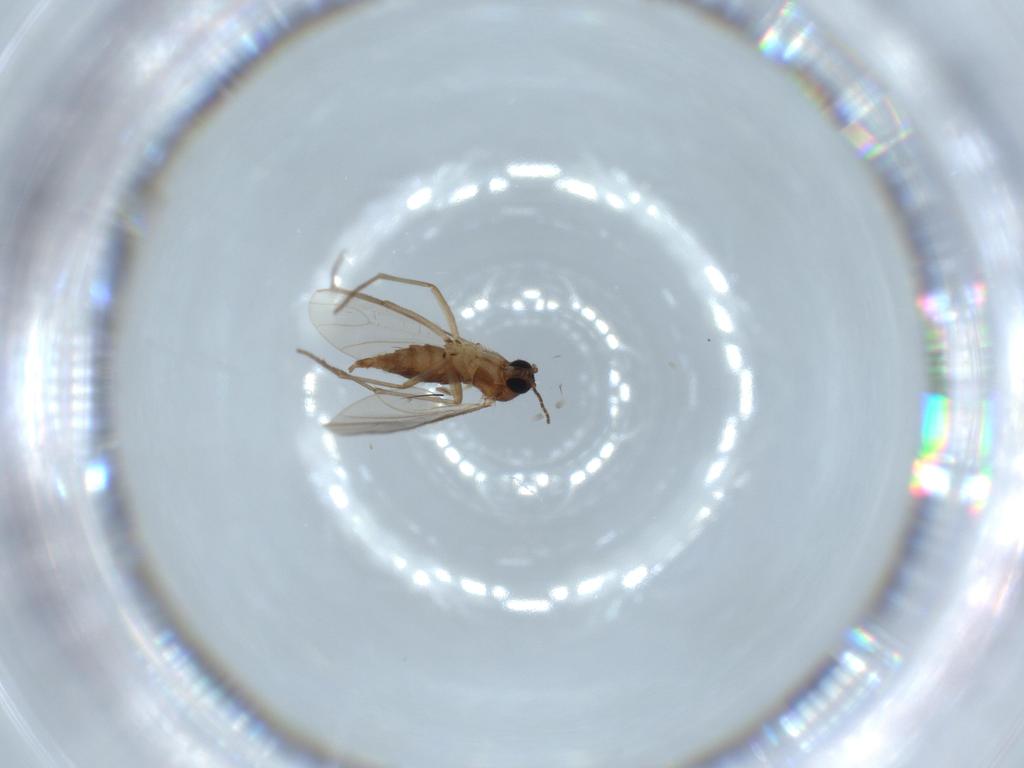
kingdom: Animalia
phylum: Arthropoda
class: Insecta
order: Diptera
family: Sciaridae
